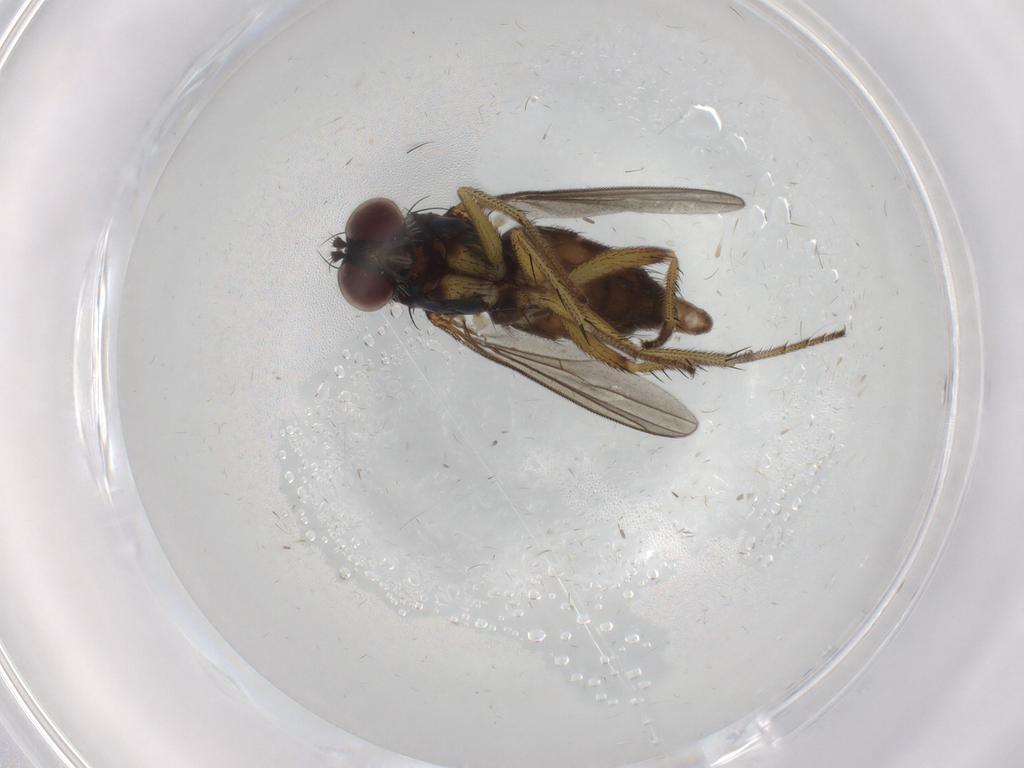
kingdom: Animalia
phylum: Arthropoda
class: Insecta
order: Diptera
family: Dolichopodidae
